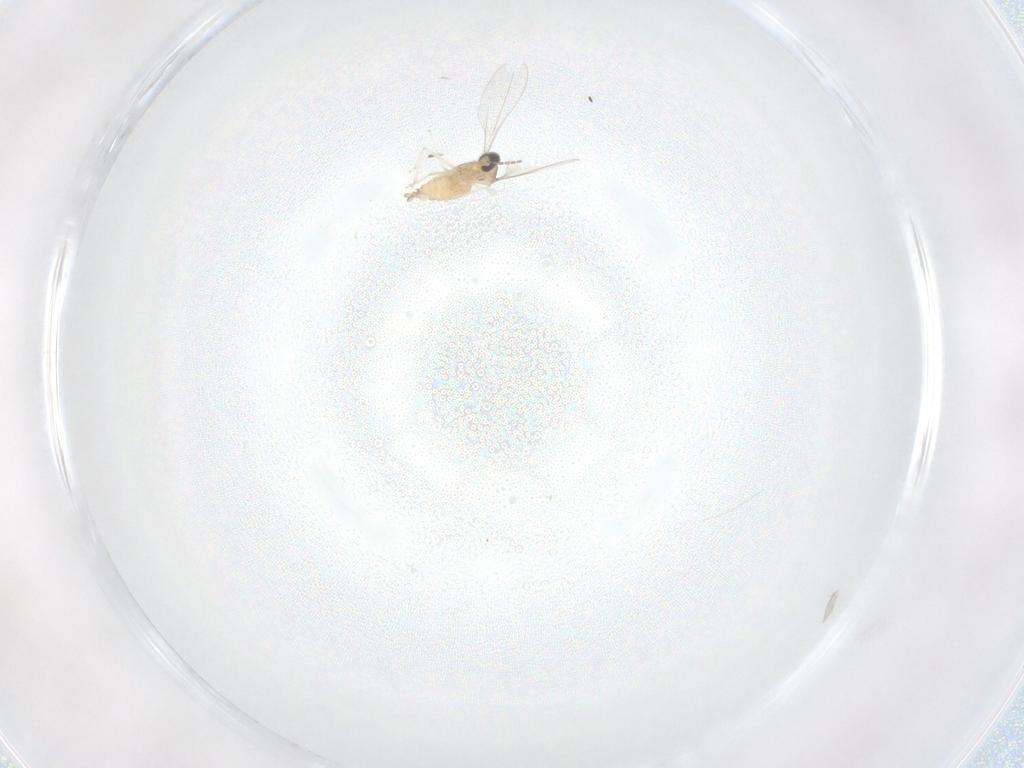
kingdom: Animalia
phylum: Arthropoda
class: Insecta
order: Diptera
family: Cecidomyiidae
